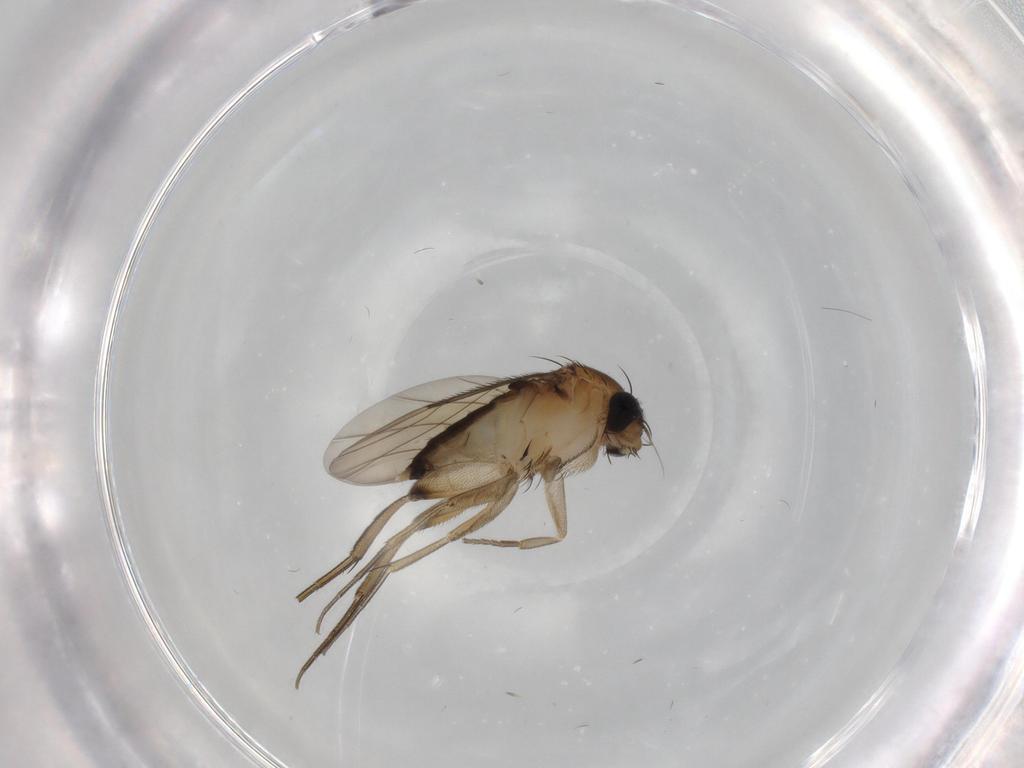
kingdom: Animalia
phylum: Arthropoda
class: Insecta
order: Diptera
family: Phoridae
